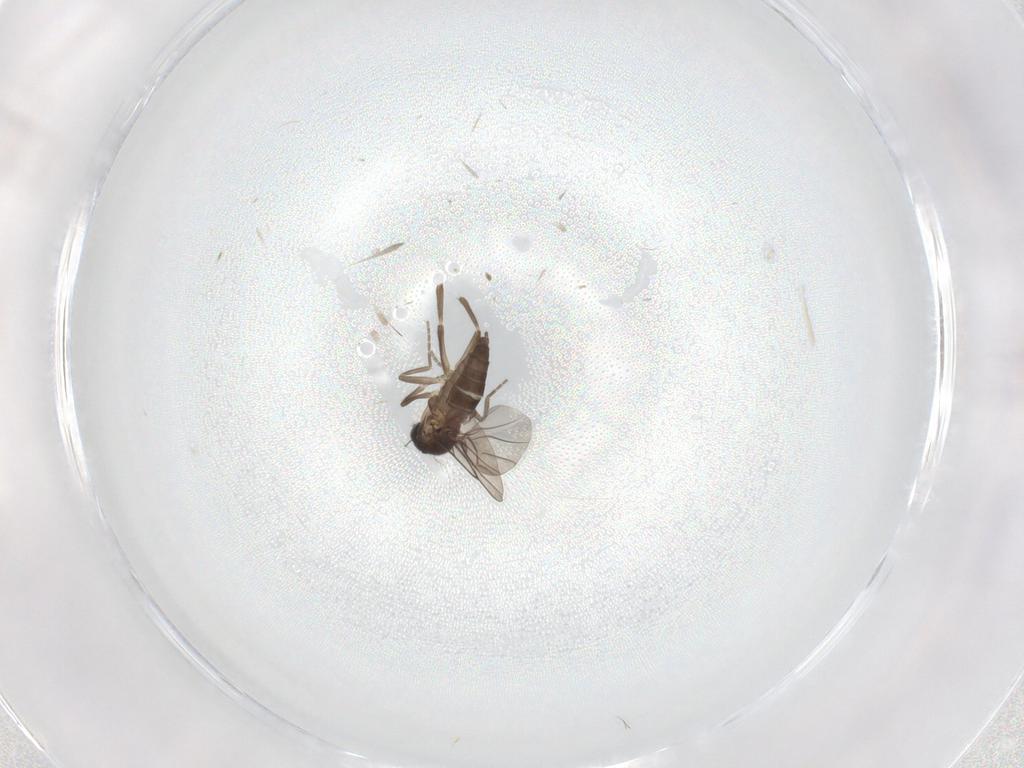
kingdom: Animalia
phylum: Arthropoda
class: Insecta
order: Diptera
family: Phoridae
